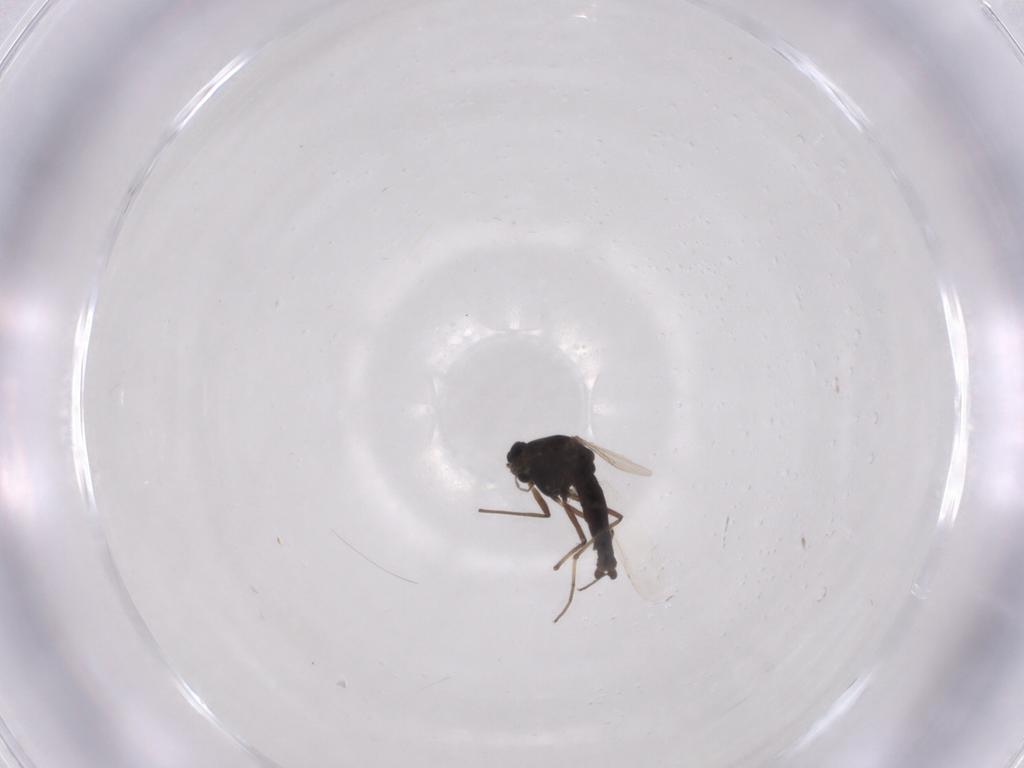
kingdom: Animalia
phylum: Arthropoda
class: Insecta
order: Diptera
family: Chironomidae
